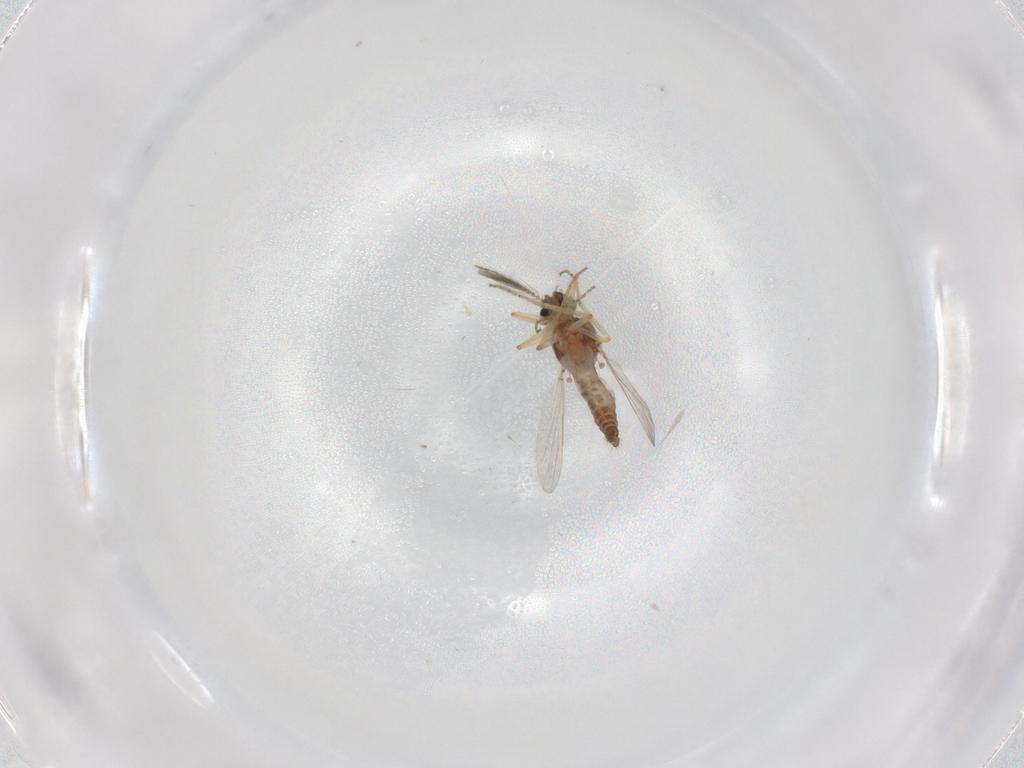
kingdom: Animalia
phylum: Arthropoda
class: Insecta
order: Diptera
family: Ceratopogonidae
